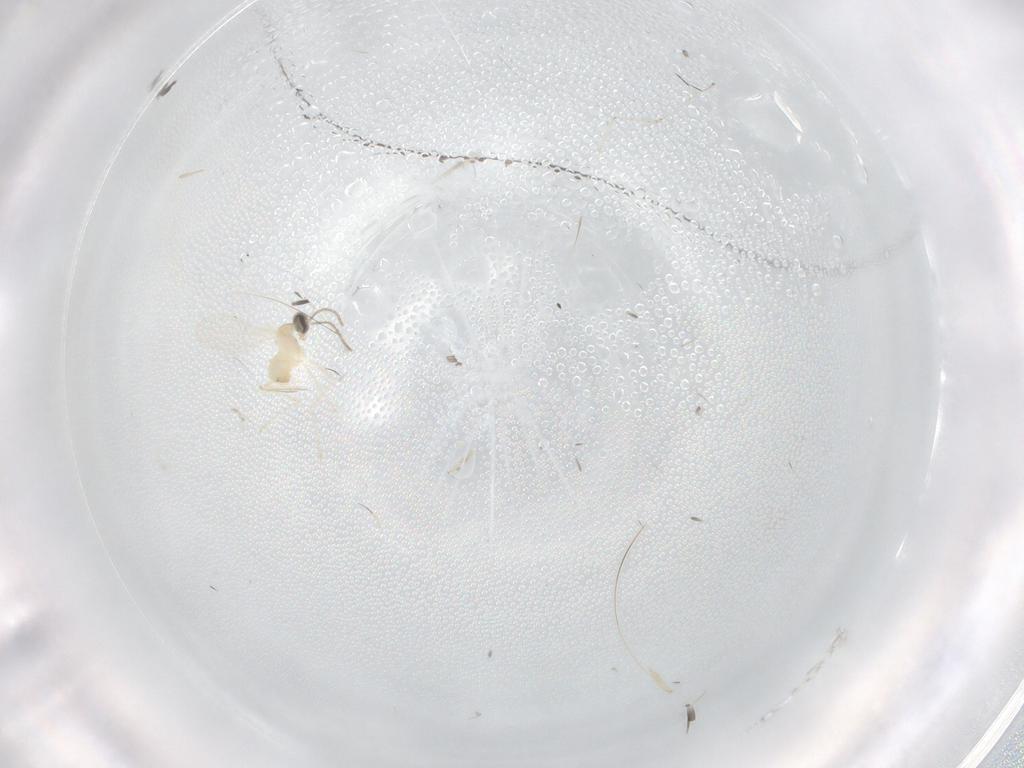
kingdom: Animalia
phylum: Arthropoda
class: Insecta
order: Diptera
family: Cecidomyiidae
